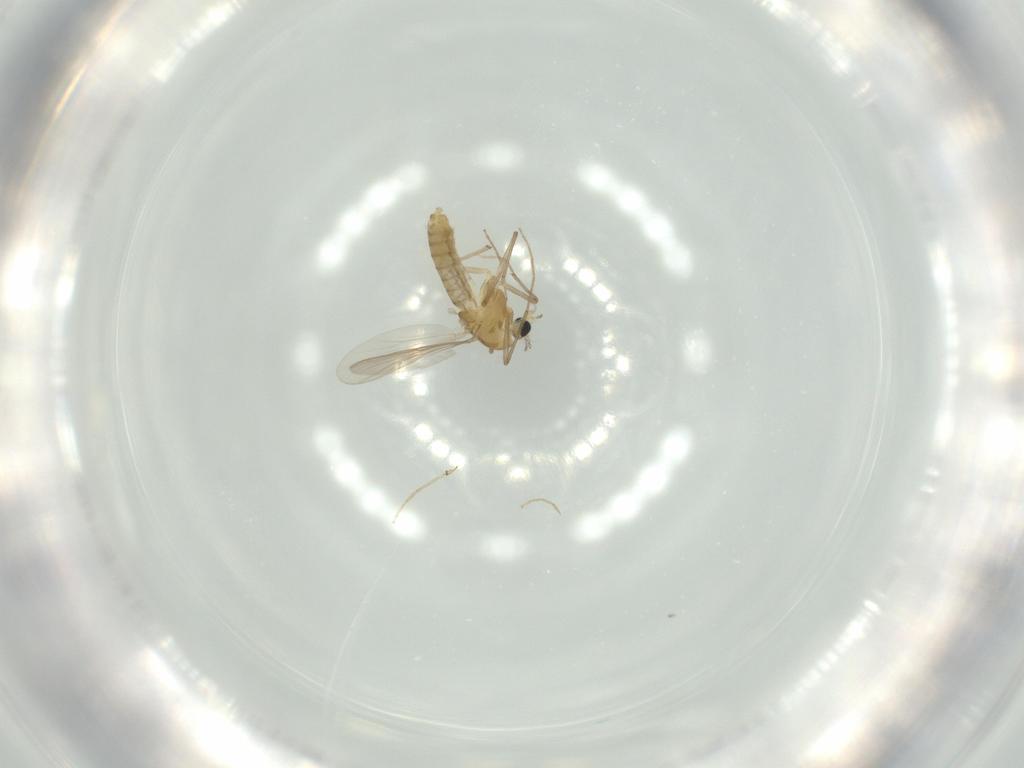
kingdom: Animalia
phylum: Arthropoda
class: Insecta
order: Diptera
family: Chironomidae
